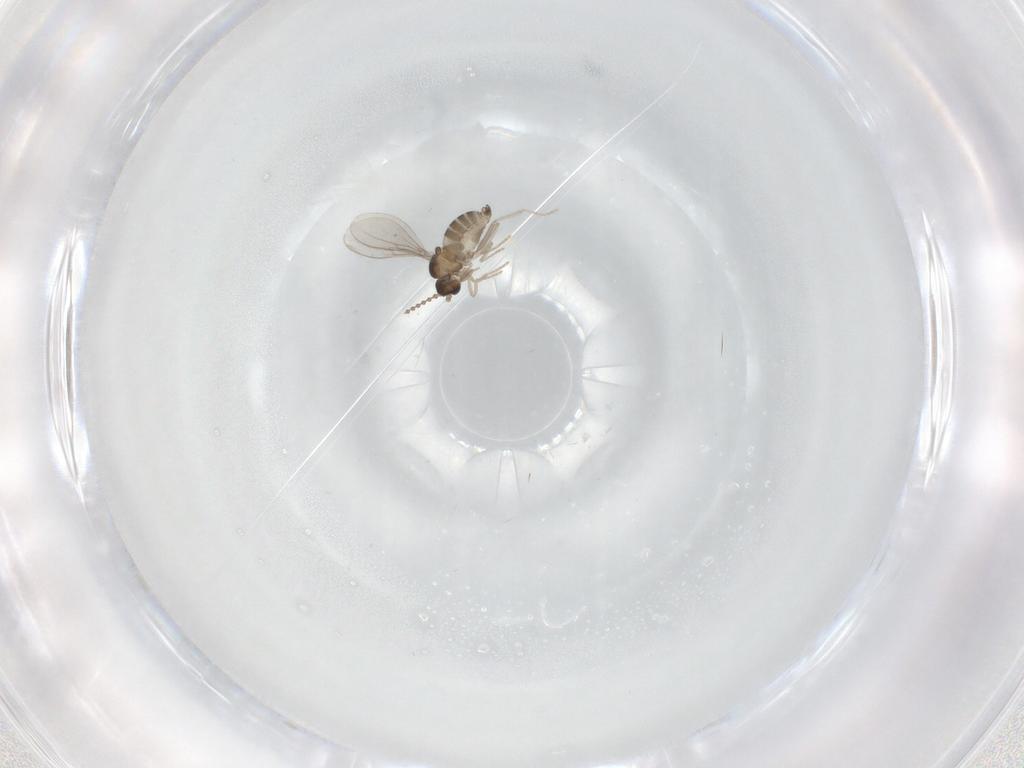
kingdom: Animalia
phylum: Arthropoda
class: Insecta
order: Diptera
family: Cecidomyiidae
